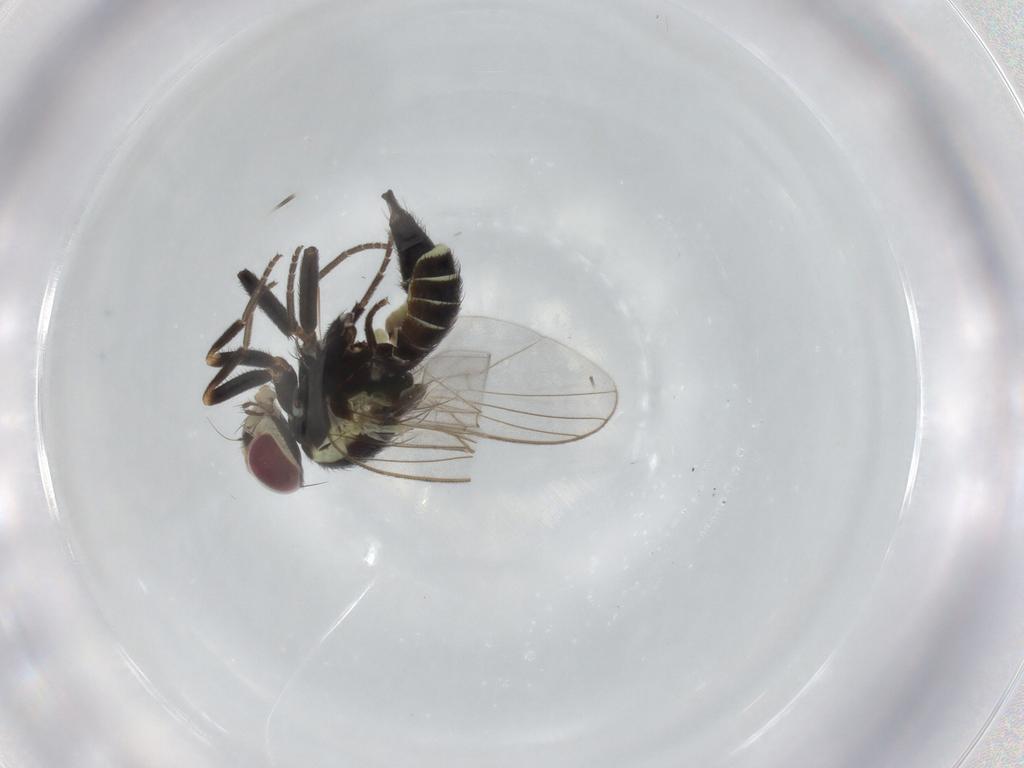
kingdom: Animalia
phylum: Arthropoda
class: Insecta
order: Diptera
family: Agromyzidae
